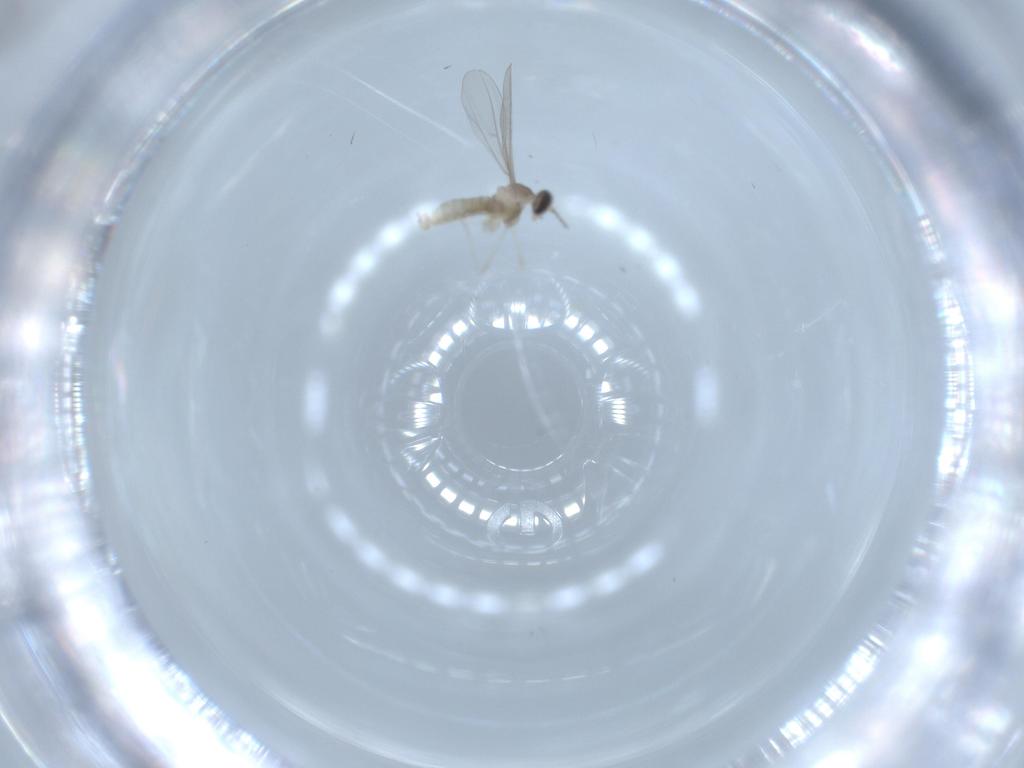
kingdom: Animalia
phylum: Arthropoda
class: Insecta
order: Diptera
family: Cecidomyiidae
